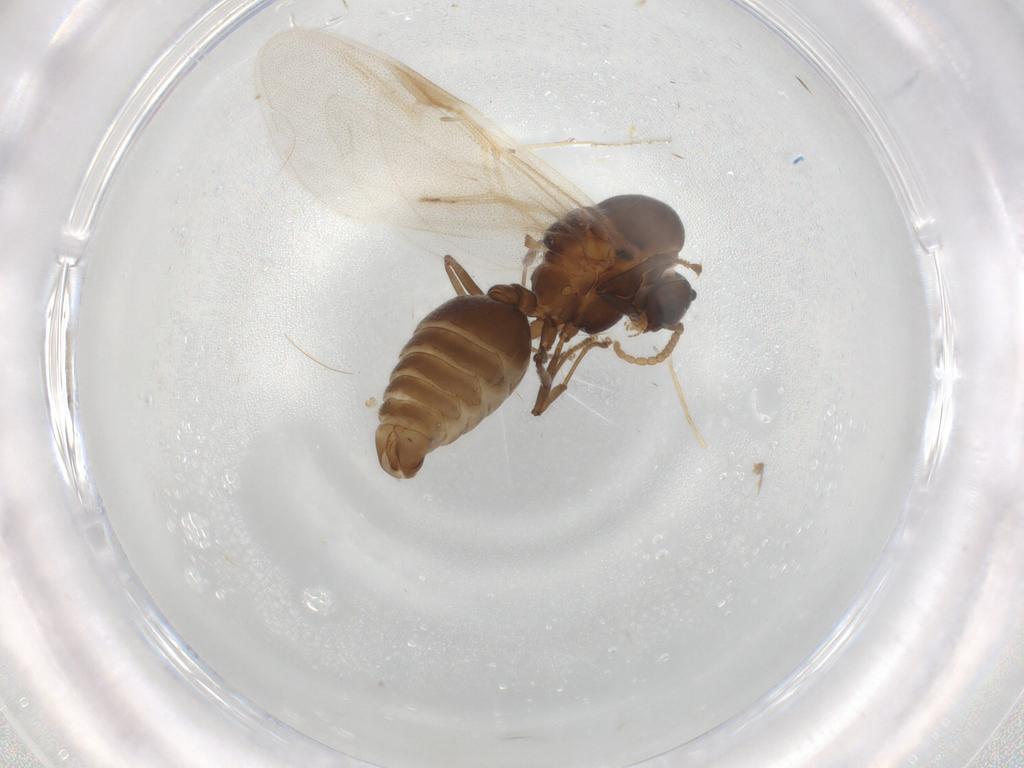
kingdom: Animalia
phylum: Arthropoda
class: Insecta
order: Hymenoptera
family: Formicidae
